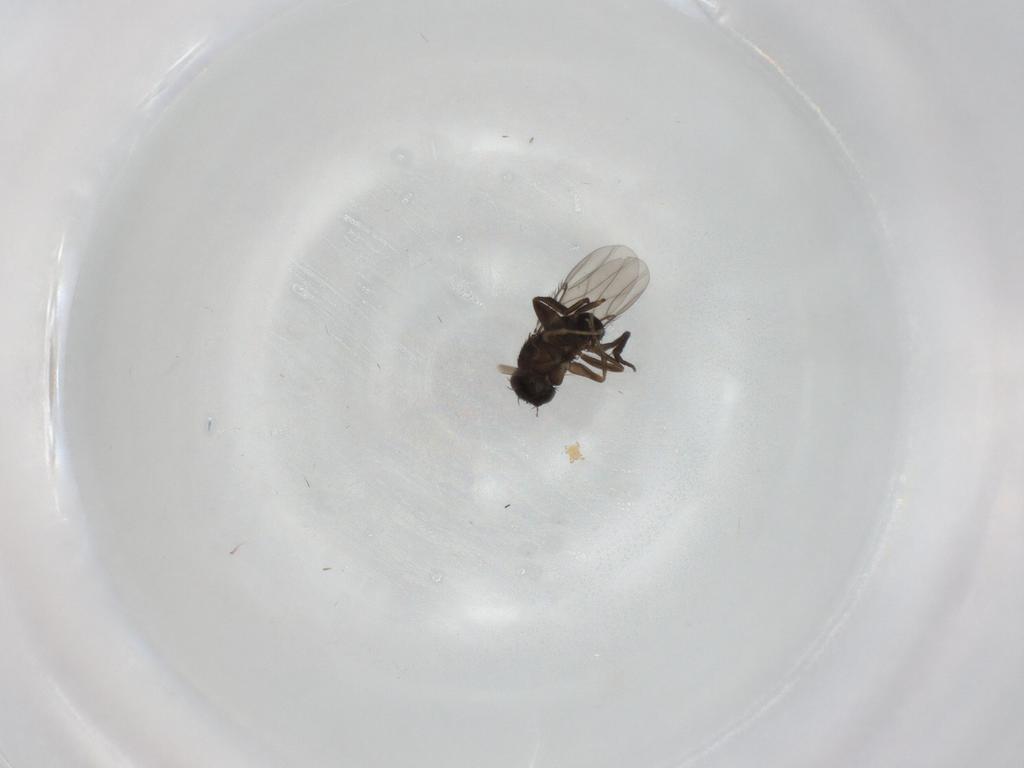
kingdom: Animalia
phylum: Arthropoda
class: Insecta
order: Diptera
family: Phoridae
